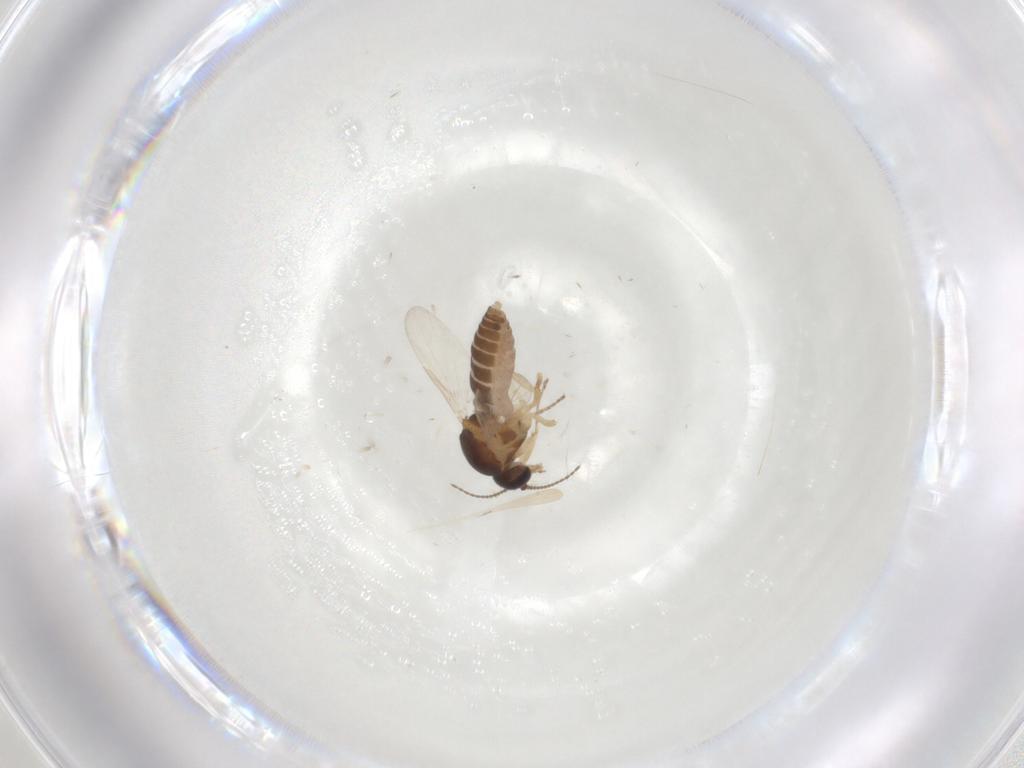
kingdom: Animalia
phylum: Arthropoda
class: Insecta
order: Diptera
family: Ceratopogonidae
